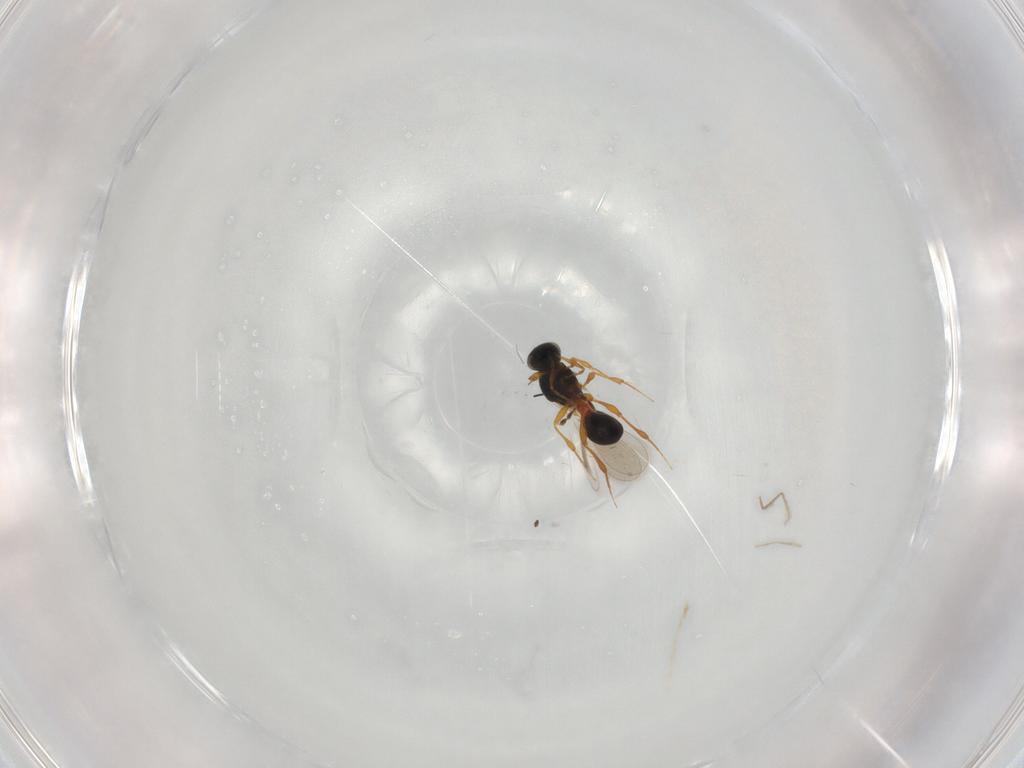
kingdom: Animalia
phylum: Arthropoda
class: Insecta
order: Hymenoptera
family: Platygastridae
